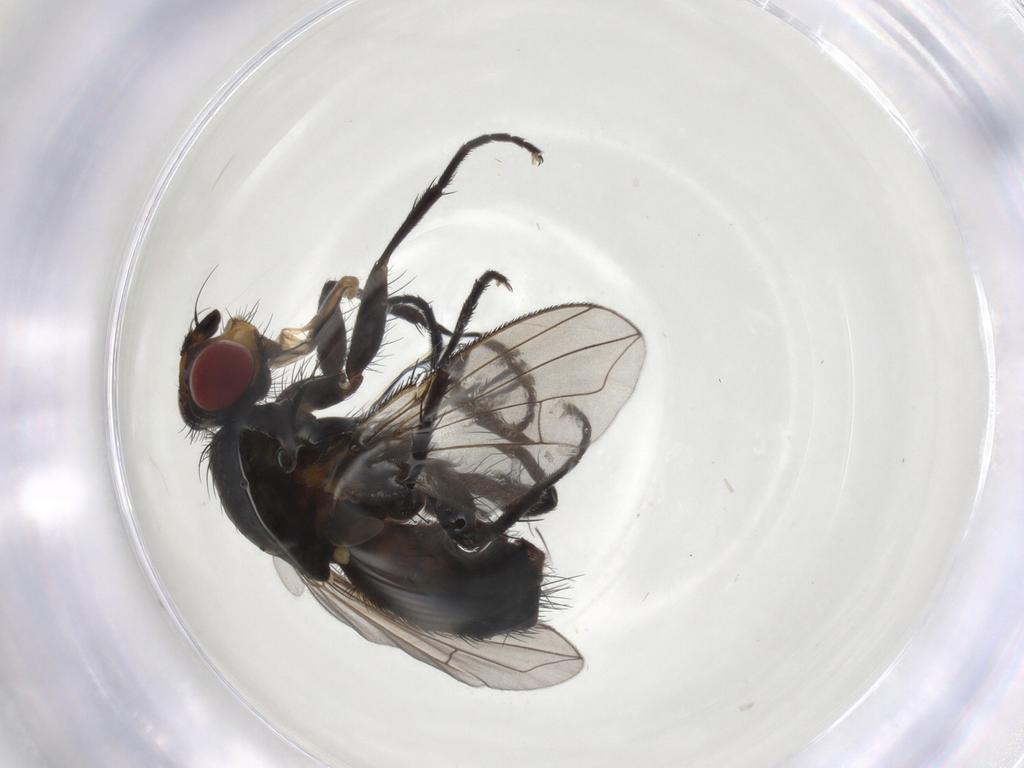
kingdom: Animalia
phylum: Arthropoda
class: Insecta
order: Diptera
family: Calliphoridae
